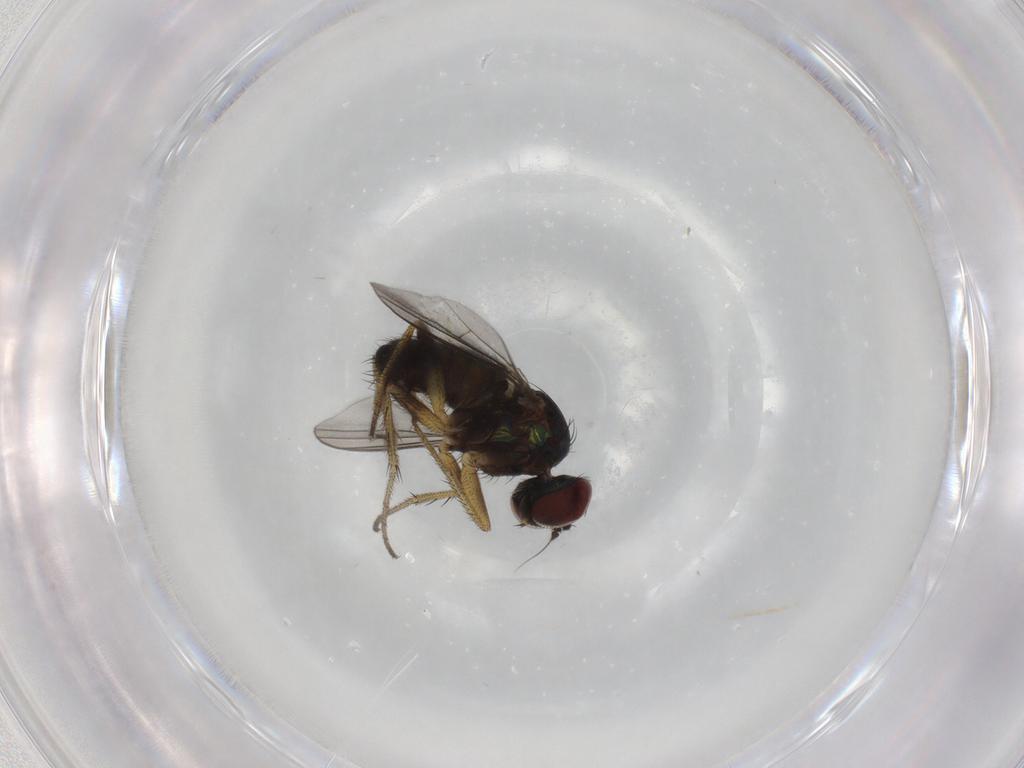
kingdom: Animalia
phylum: Arthropoda
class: Insecta
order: Diptera
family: Dolichopodidae
